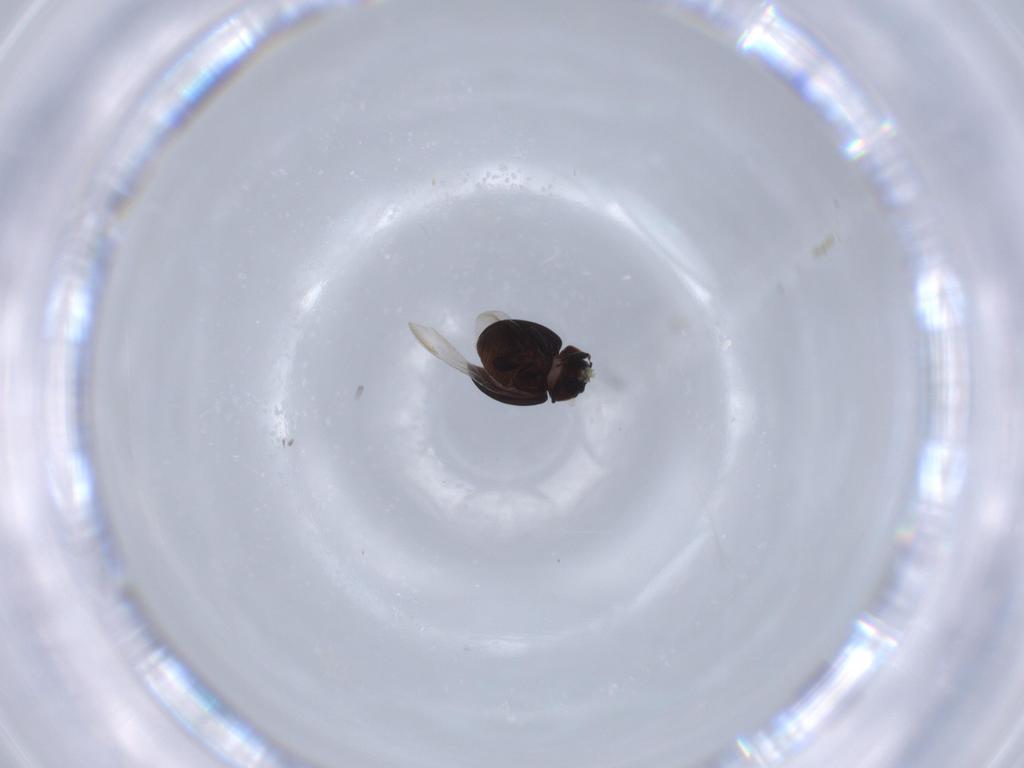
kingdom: Animalia
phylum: Arthropoda
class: Insecta
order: Coleoptera
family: Coccinellidae
